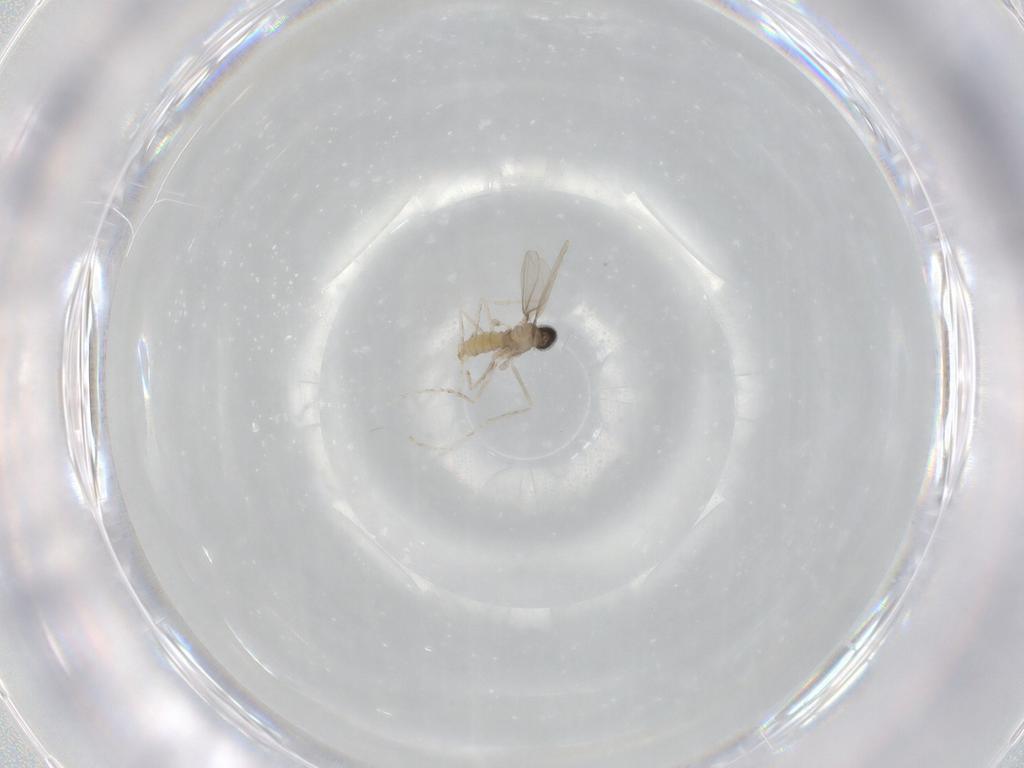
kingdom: Animalia
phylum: Arthropoda
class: Insecta
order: Diptera
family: Cecidomyiidae
